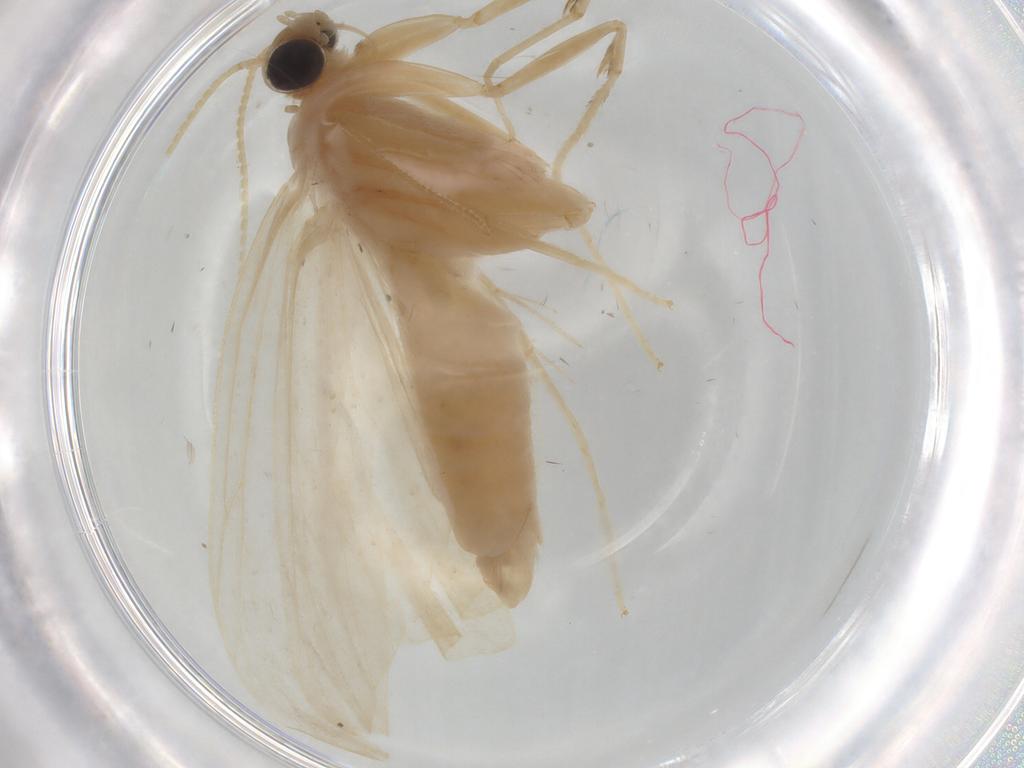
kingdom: Animalia
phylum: Arthropoda
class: Insecta
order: Lepidoptera
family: Crambidae
